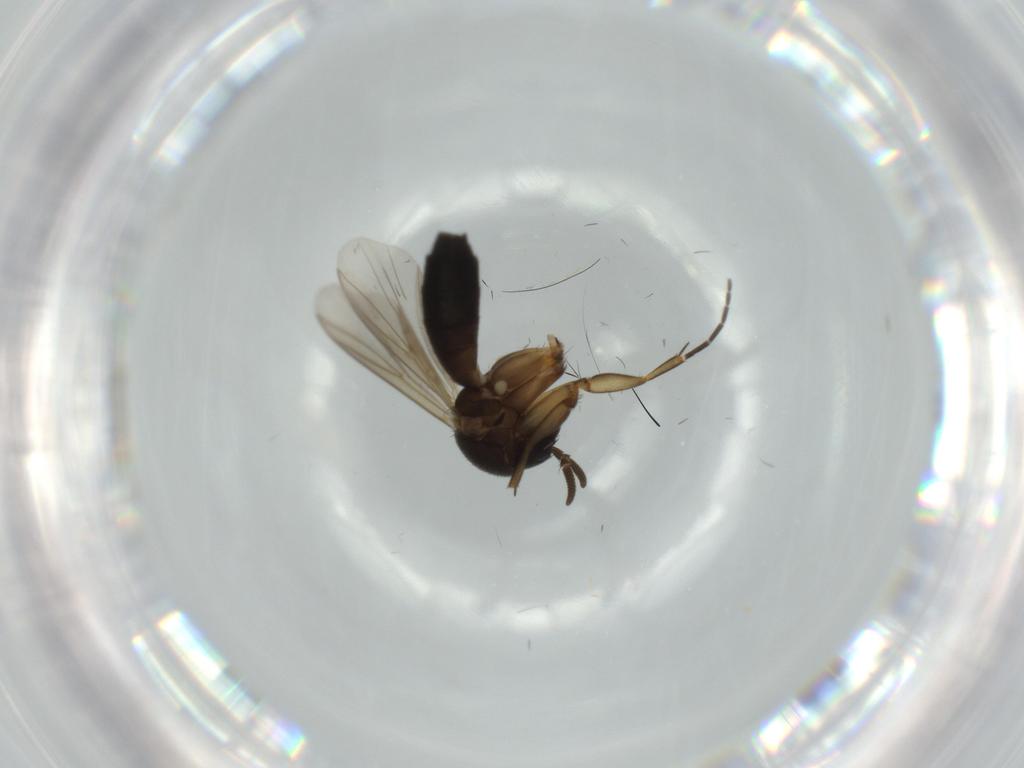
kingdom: Animalia
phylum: Arthropoda
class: Insecta
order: Diptera
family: Mycetophilidae
